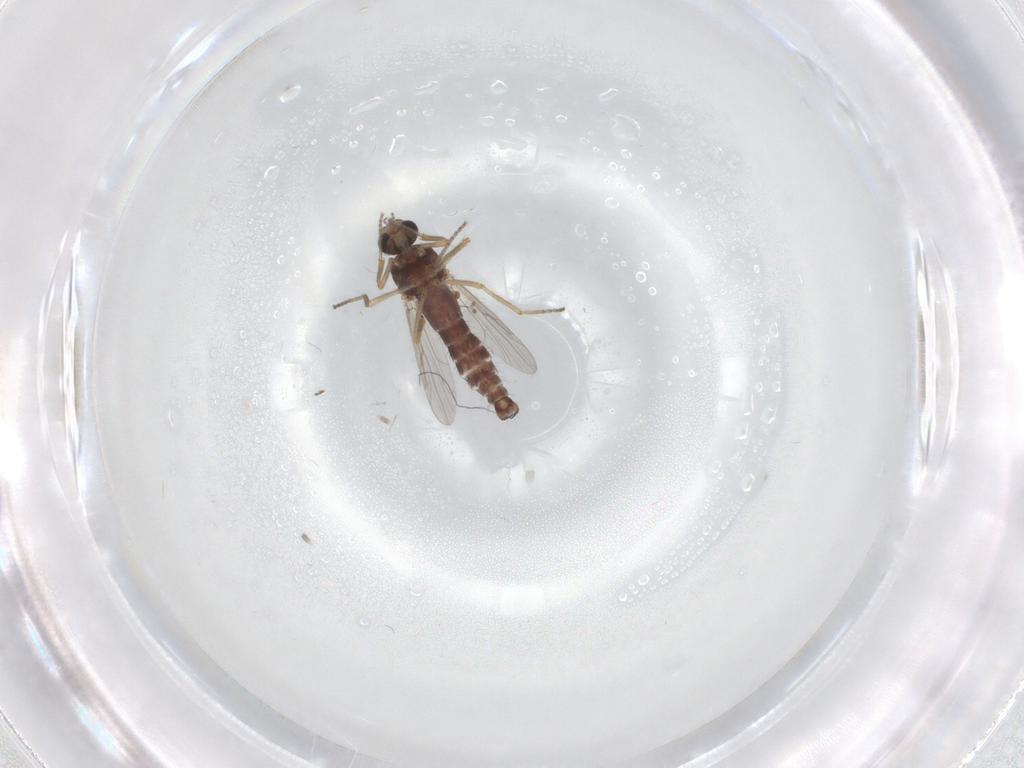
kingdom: Animalia
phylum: Arthropoda
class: Insecta
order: Diptera
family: Ceratopogonidae
